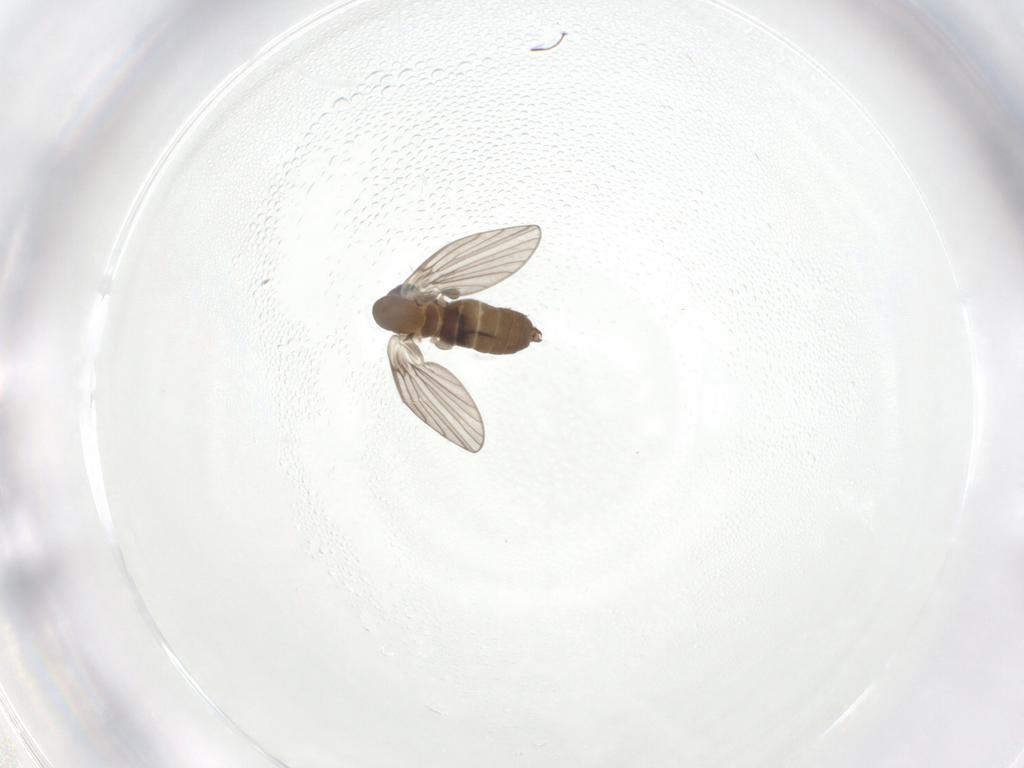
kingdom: Animalia
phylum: Arthropoda
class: Insecta
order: Diptera
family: Psychodidae
